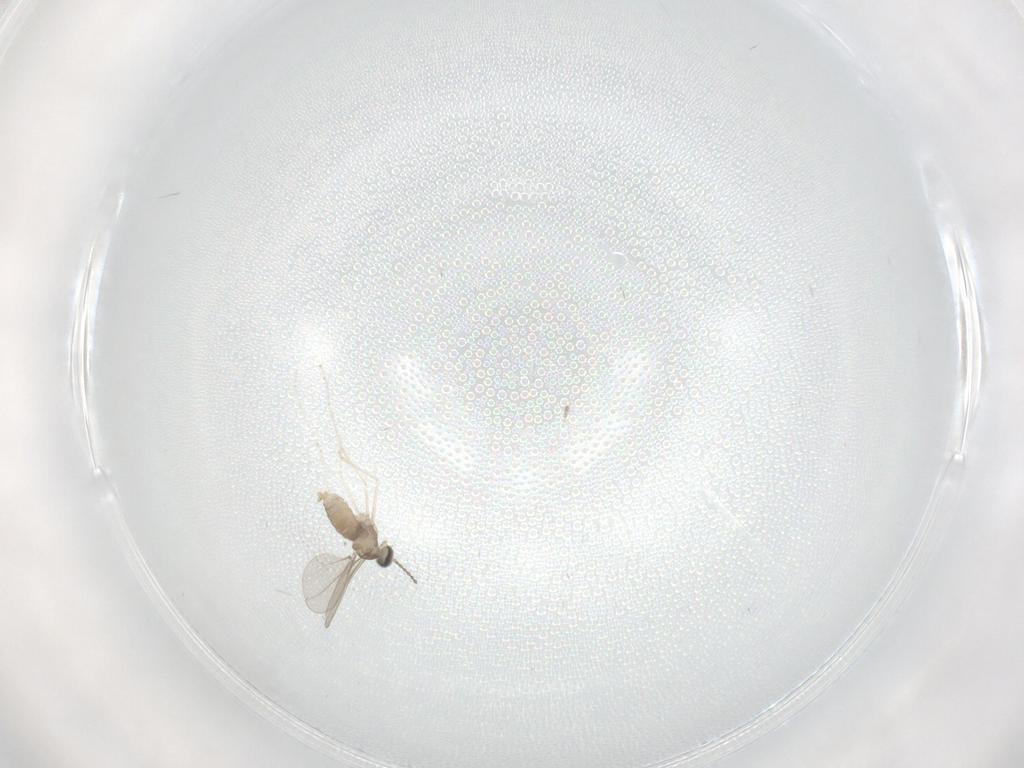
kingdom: Animalia
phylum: Arthropoda
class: Insecta
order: Diptera
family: Cecidomyiidae
